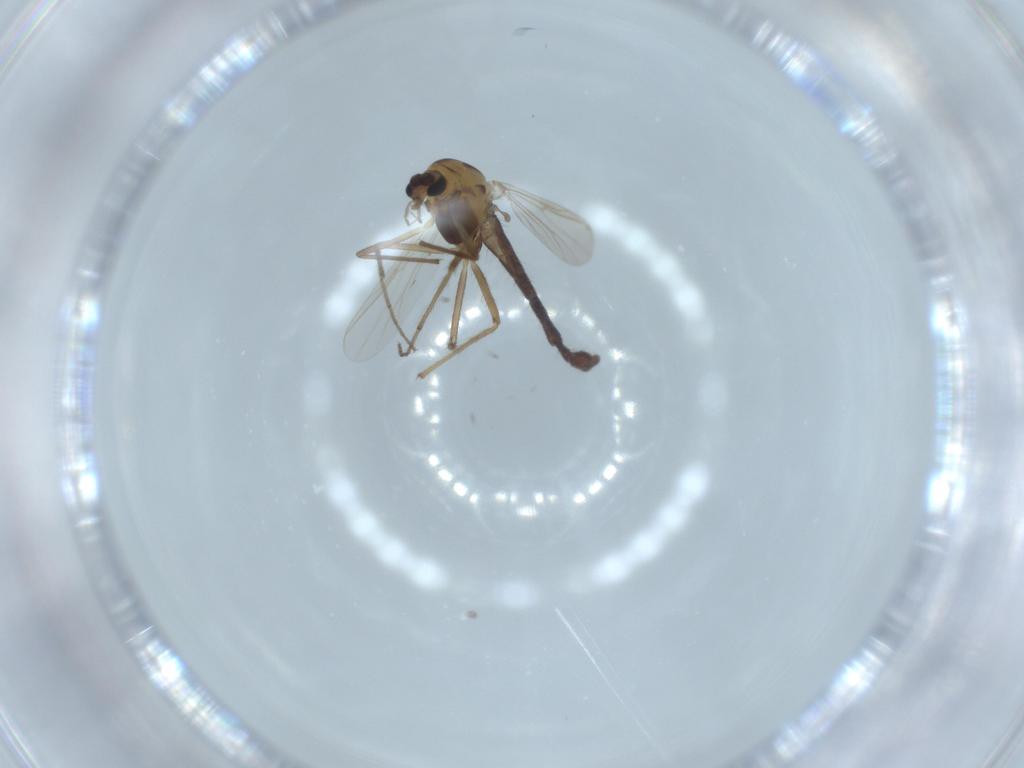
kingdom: Animalia
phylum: Arthropoda
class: Insecta
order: Diptera
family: Chironomidae
